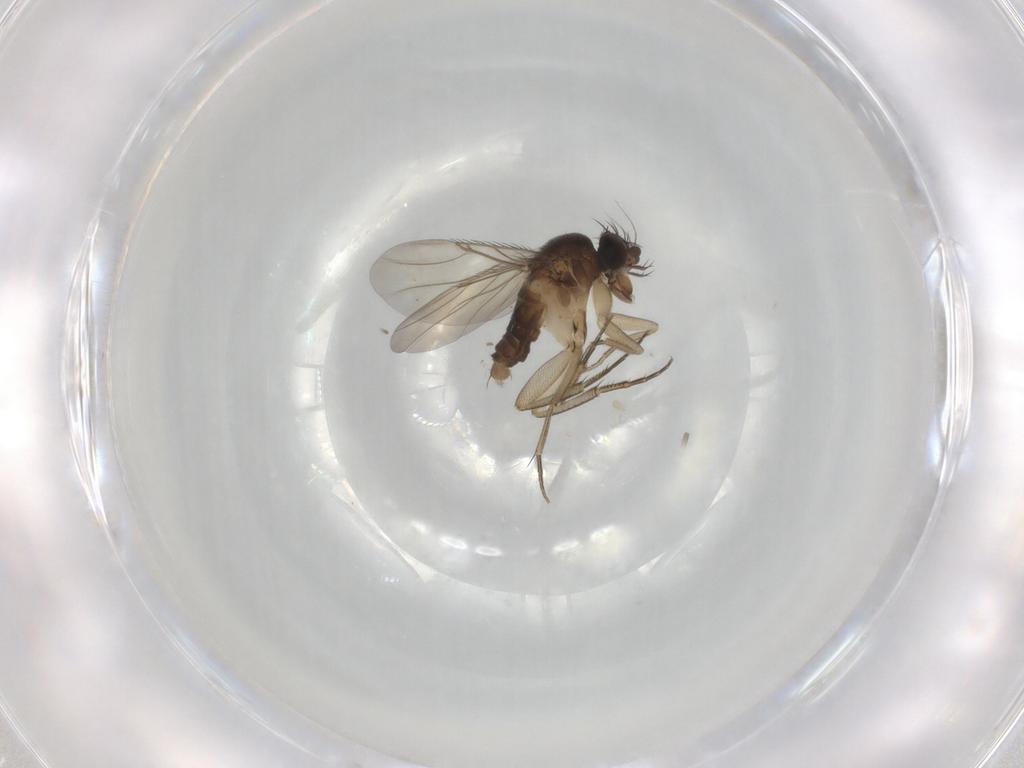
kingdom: Animalia
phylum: Arthropoda
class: Insecta
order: Diptera
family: Phoridae
